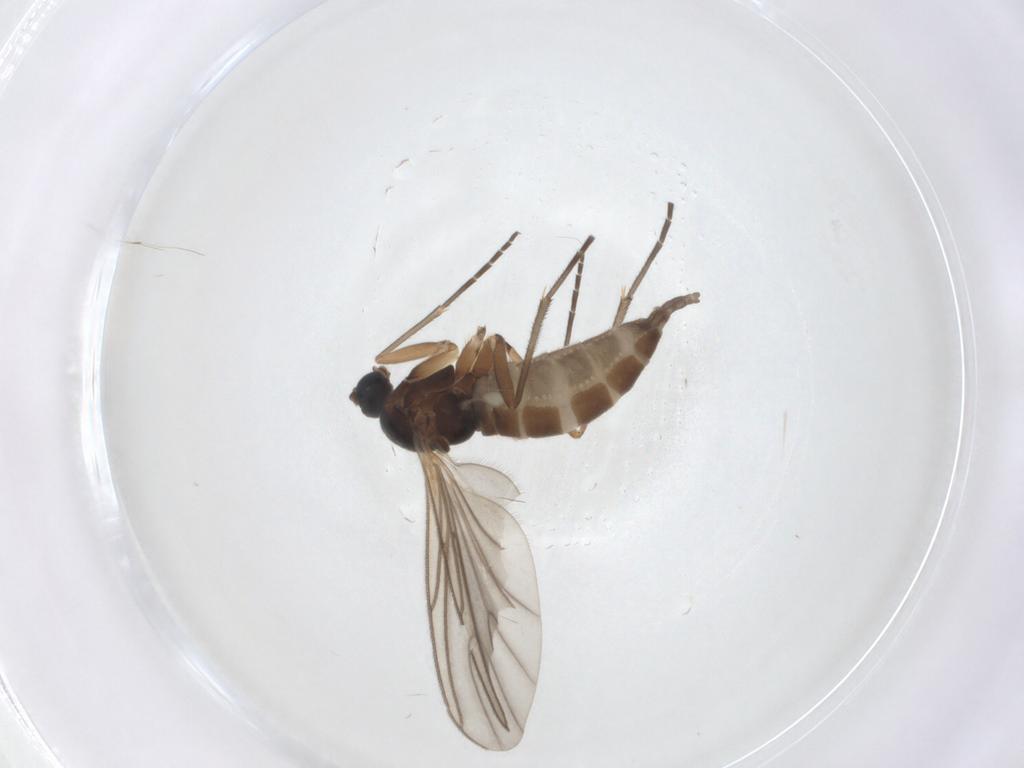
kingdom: Animalia
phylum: Arthropoda
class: Insecta
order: Diptera
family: Sciaridae
